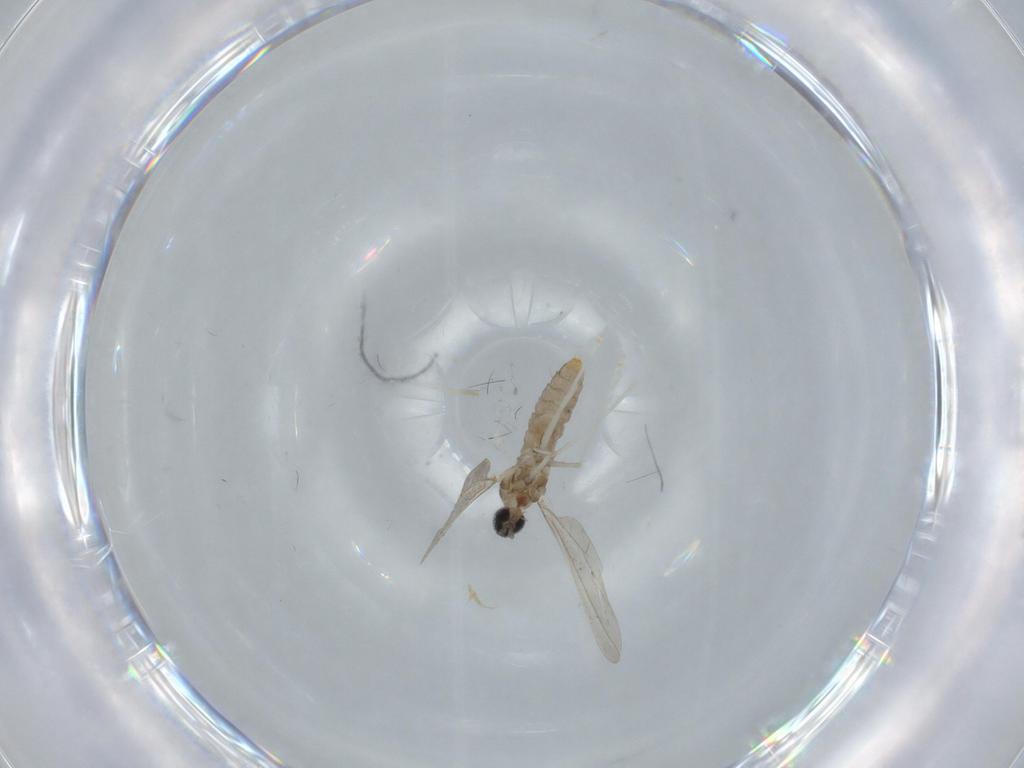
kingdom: Animalia
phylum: Arthropoda
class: Insecta
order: Diptera
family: Cecidomyiidae
